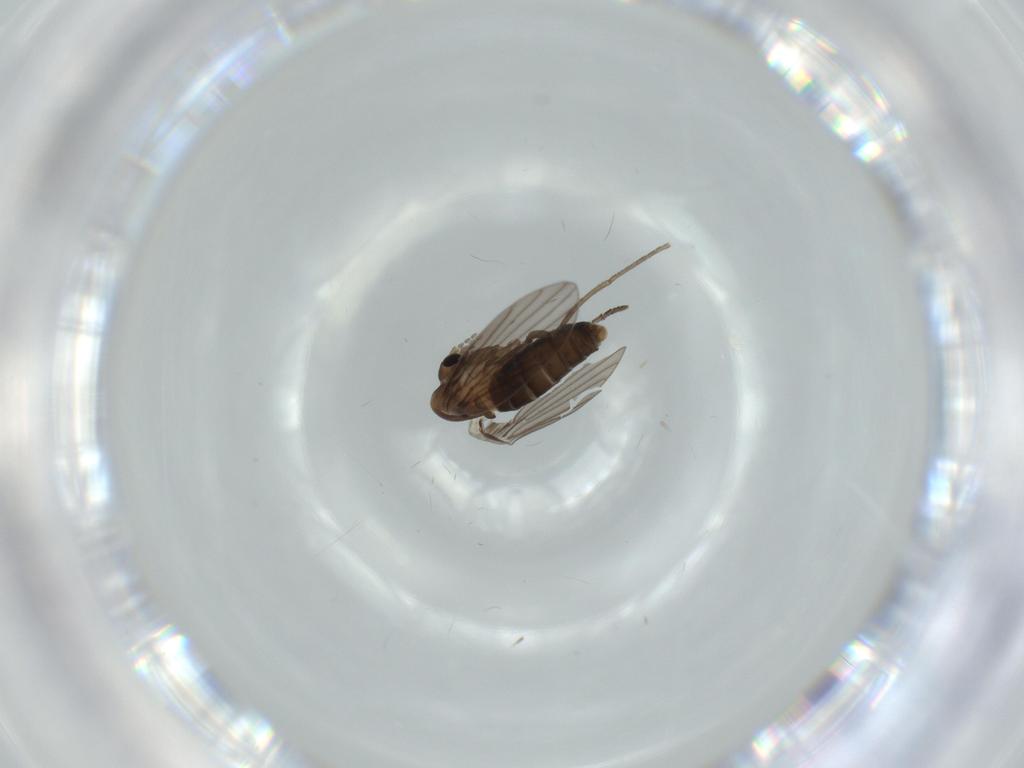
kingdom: Animalia
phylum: Arthropoda
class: Insecta
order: Diptera
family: Psychodidae
